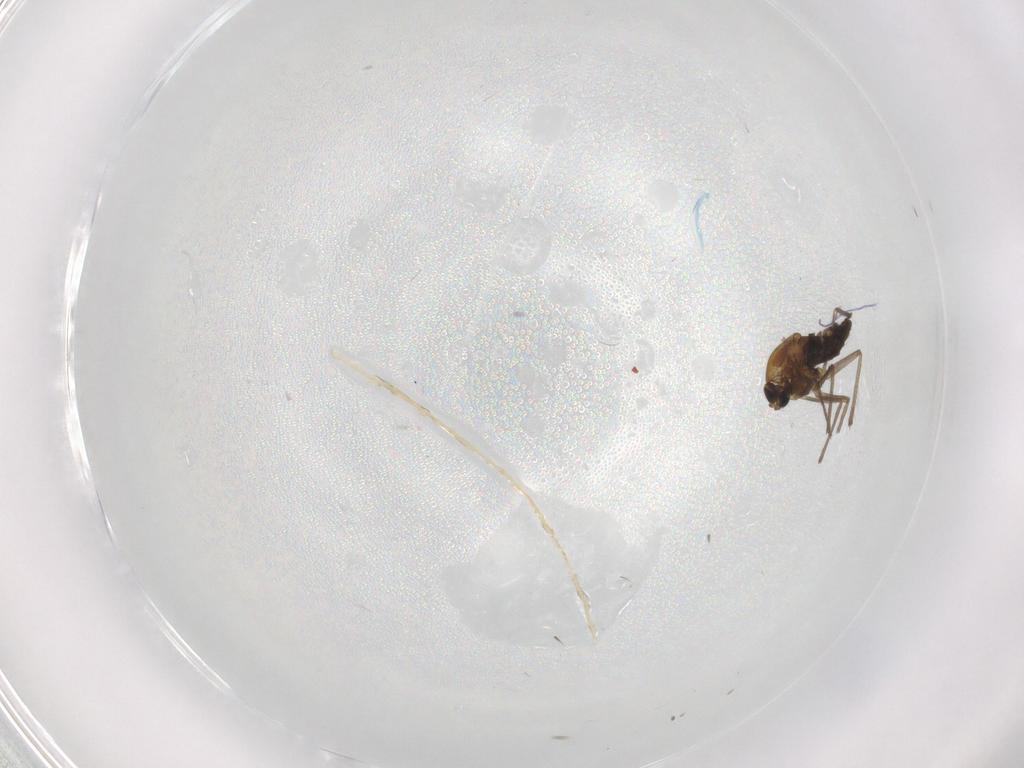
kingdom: Animalia
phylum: Arthropoda
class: Insecta
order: Diptera
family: Chironomidae
